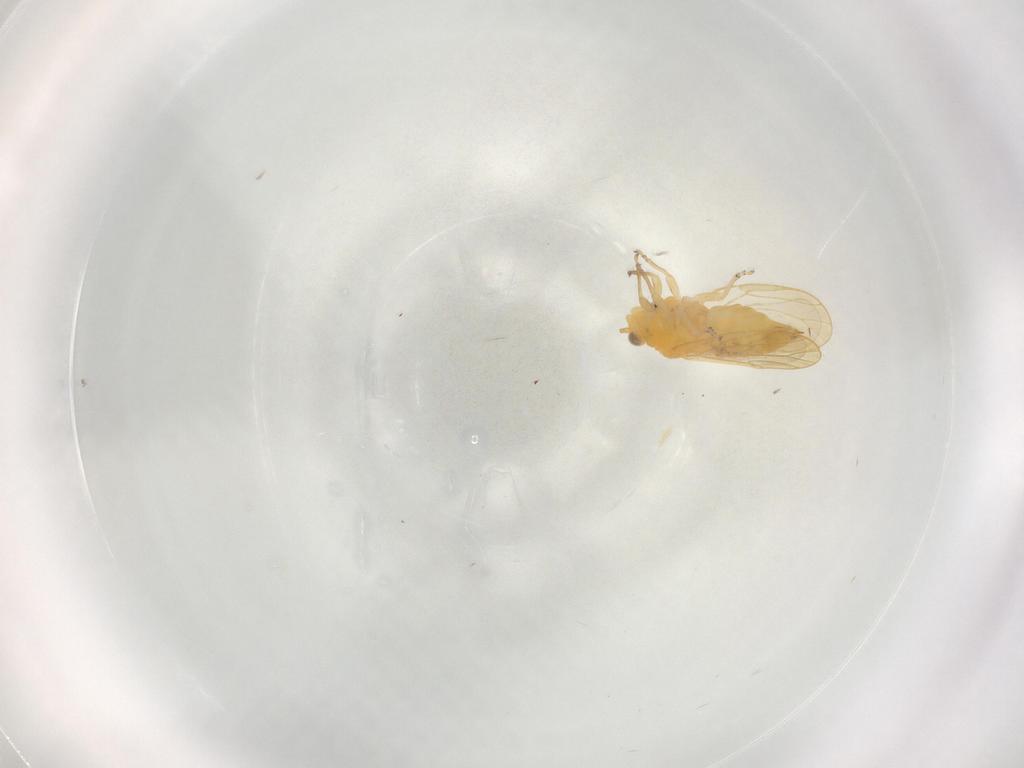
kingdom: Animalia
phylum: Arthropoda
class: Insecta
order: Hemiptera
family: Psyllidae
